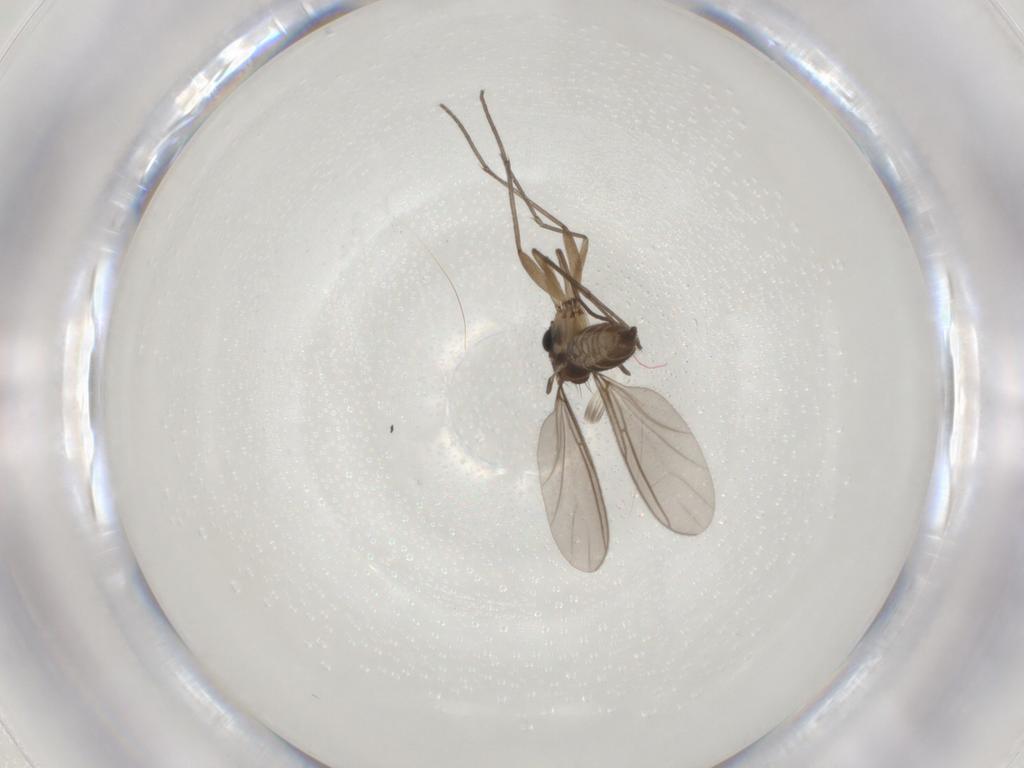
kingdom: Animalia
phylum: Arthropoda
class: Insecta
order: Diptera
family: Sciaridae
